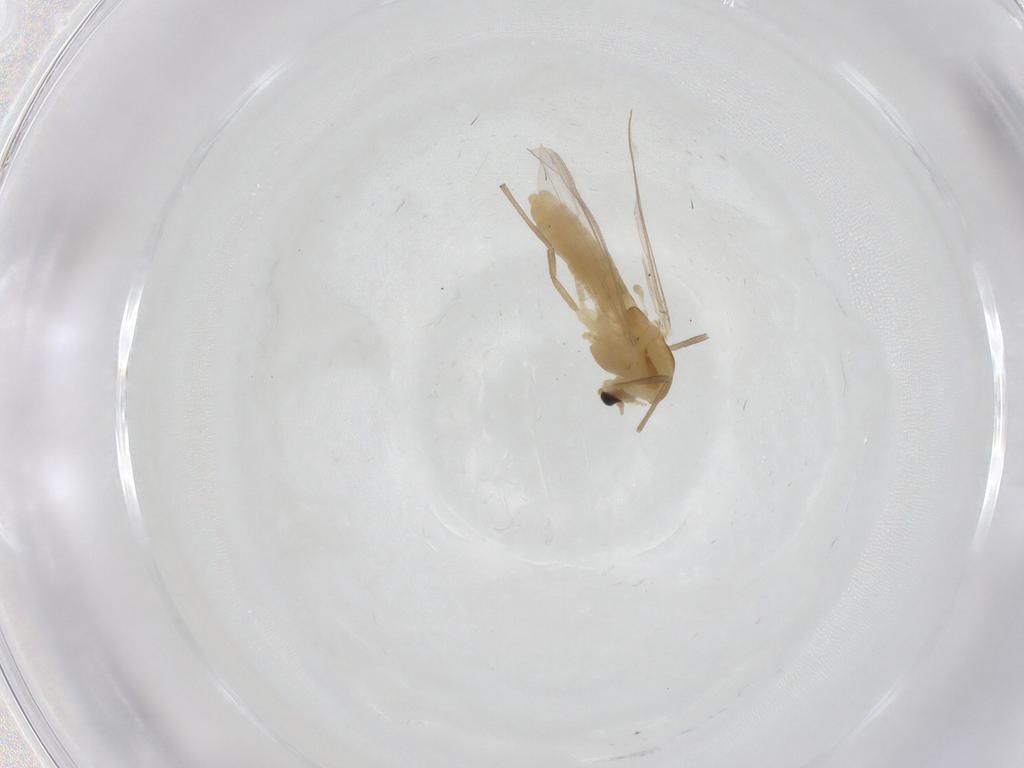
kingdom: Animalia
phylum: Arthropoda
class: Insecta
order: Diptera
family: Chironomidae
